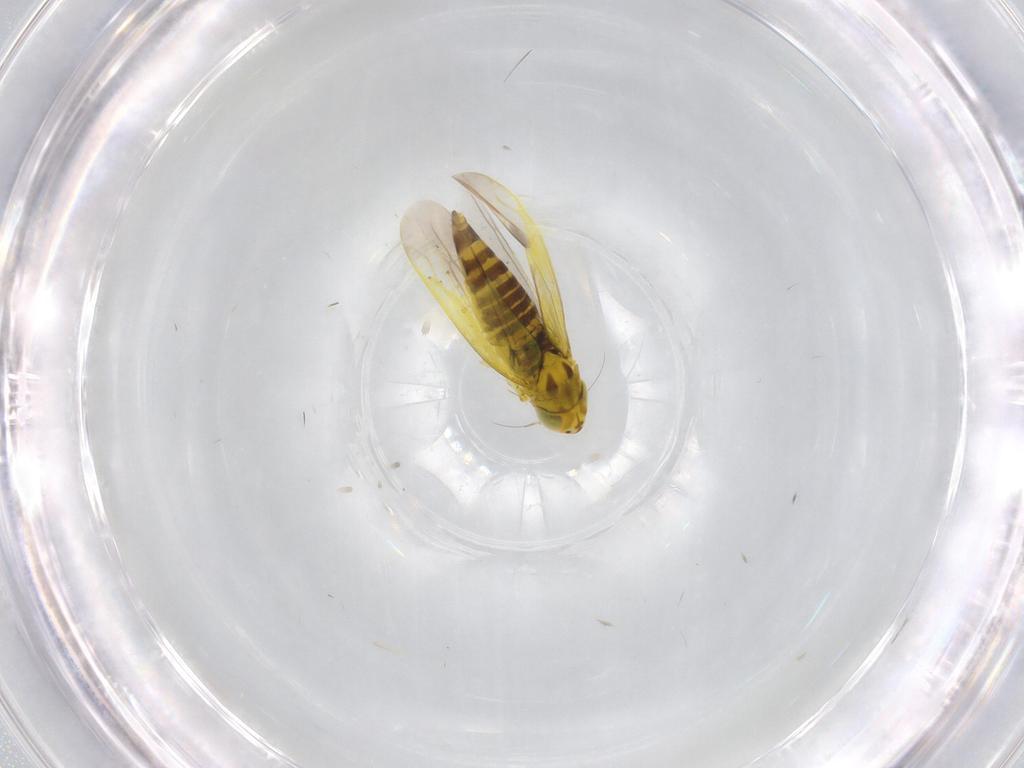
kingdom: Animalia
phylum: Arthropoda
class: Insecta
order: Hemiptera
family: Cicadellidae
